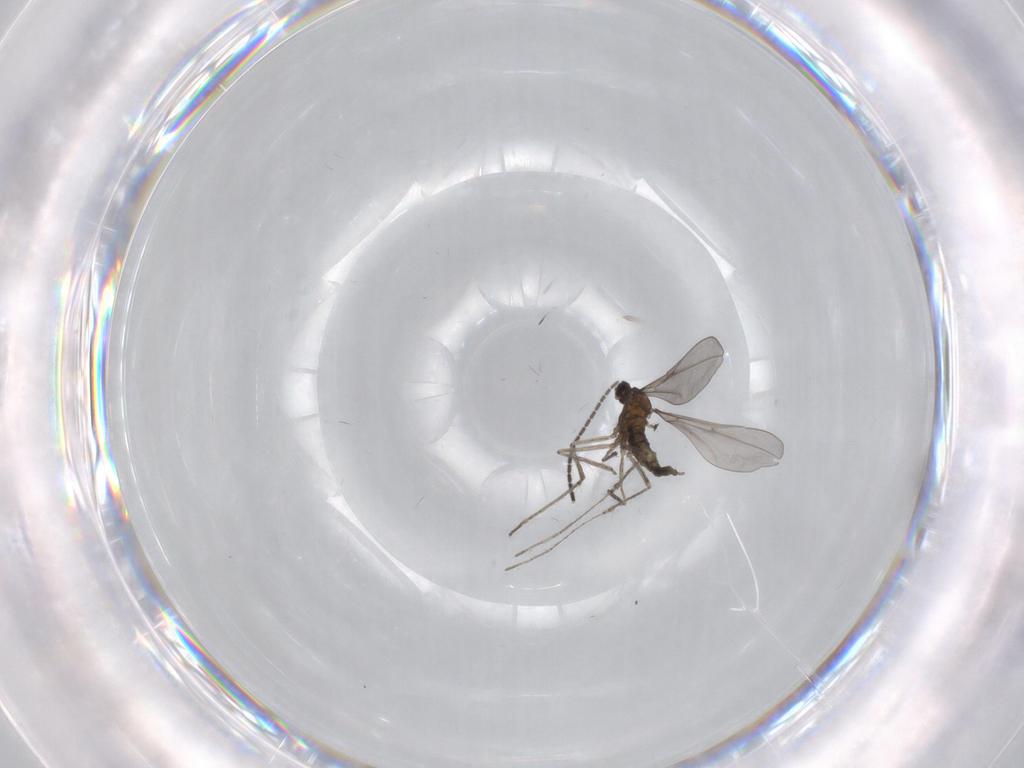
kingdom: Animalia
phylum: Arthropoda
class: Insecta
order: Diptera
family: Sciaridae
